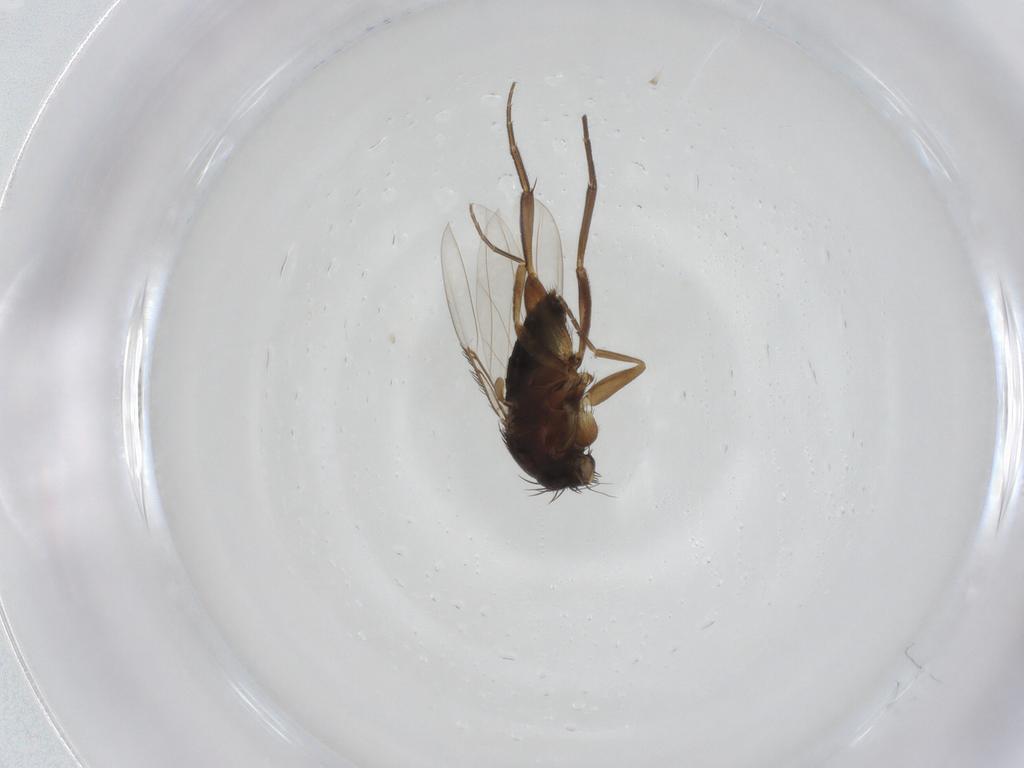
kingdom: Animalia
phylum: Arthropoda
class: Insecta
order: Diptera
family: Phoridae
